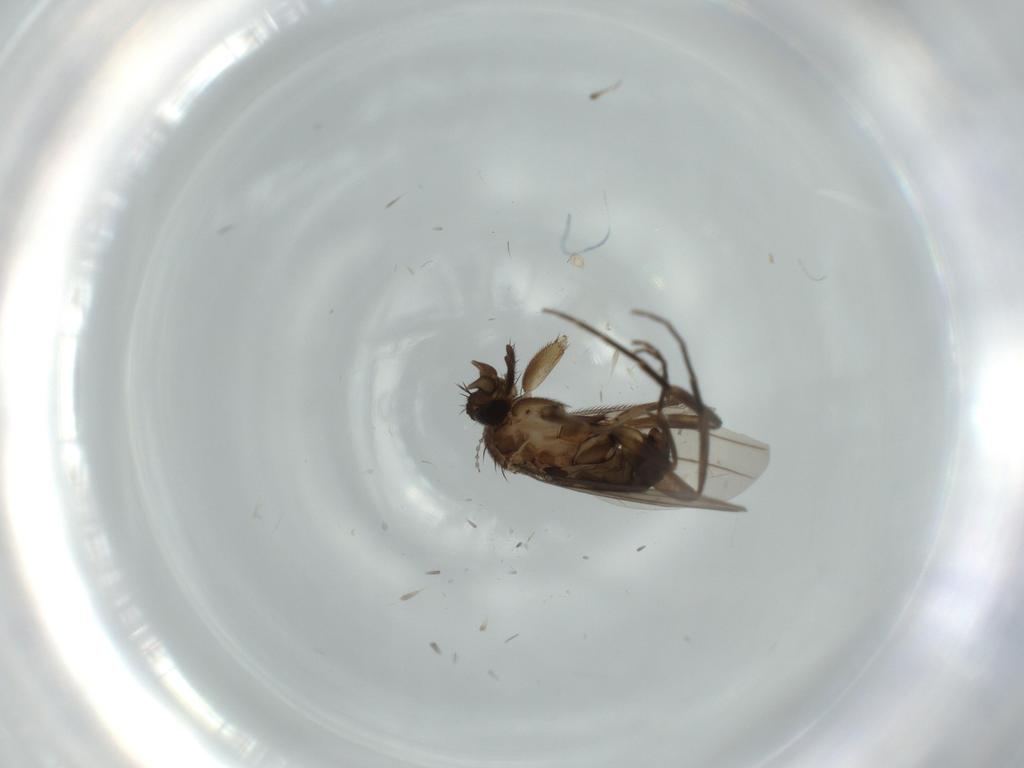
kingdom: Animalia
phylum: Arthropoda
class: Insecta
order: Diptera
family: Phoridae
